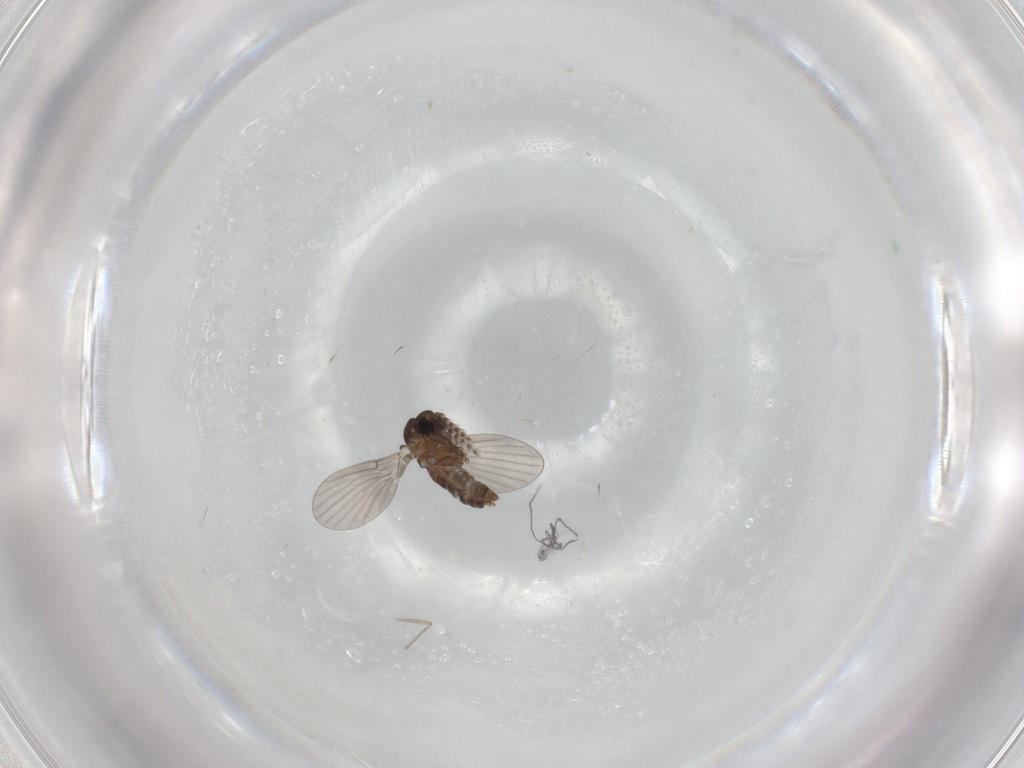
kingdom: Animalia
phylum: Arthropoda
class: Insecta
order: Diptera
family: Chironomidae
